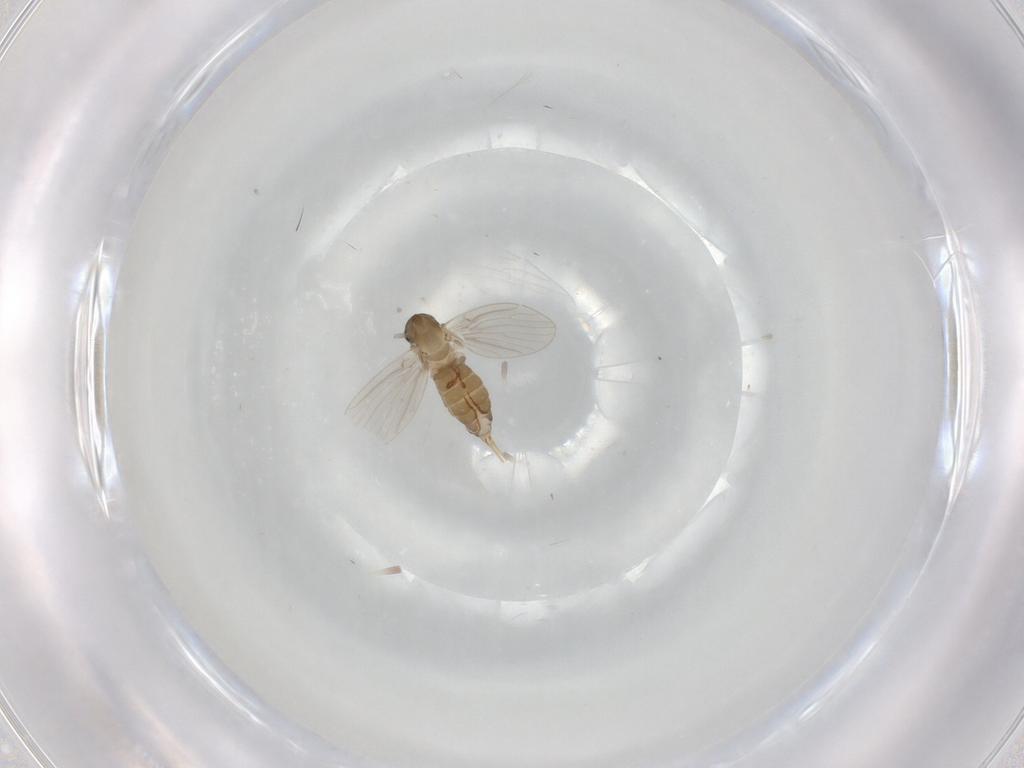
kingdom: Animalia
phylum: Arthropoda
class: Insecta
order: Diptera
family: Psychodidae
